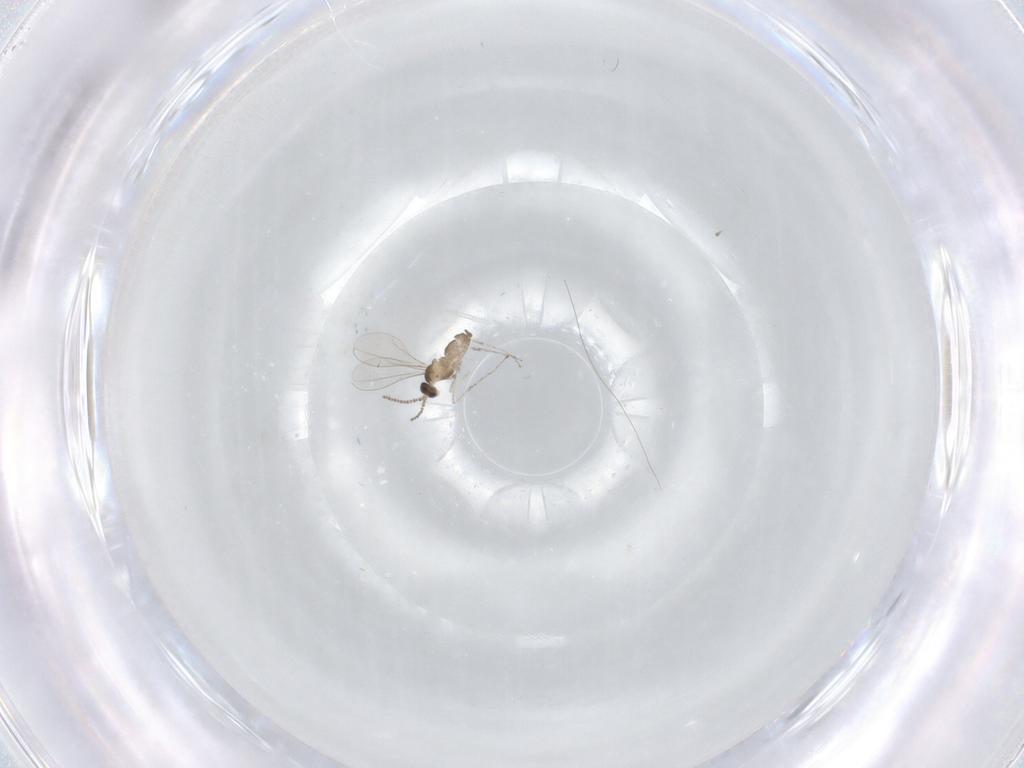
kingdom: Animalia
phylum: Arthropoda
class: Insecta
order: Diptera
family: Cecidomyiidae
